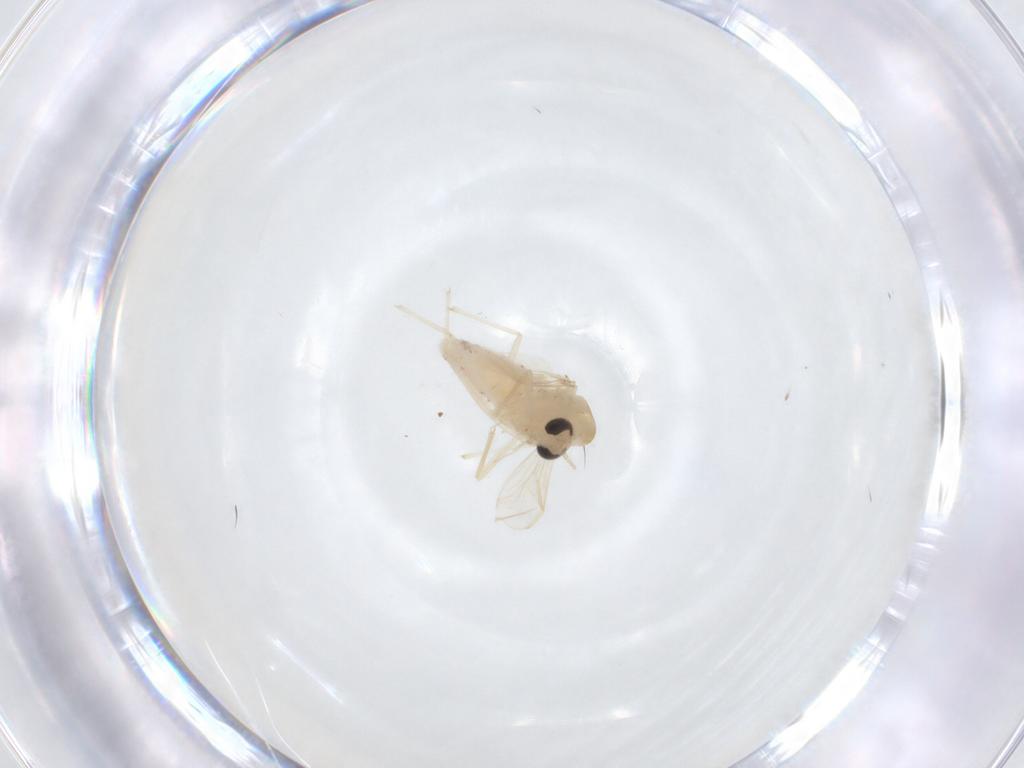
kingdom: Animalia
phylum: Arthropoda
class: Insecta
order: Diptera
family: Chironomidae
